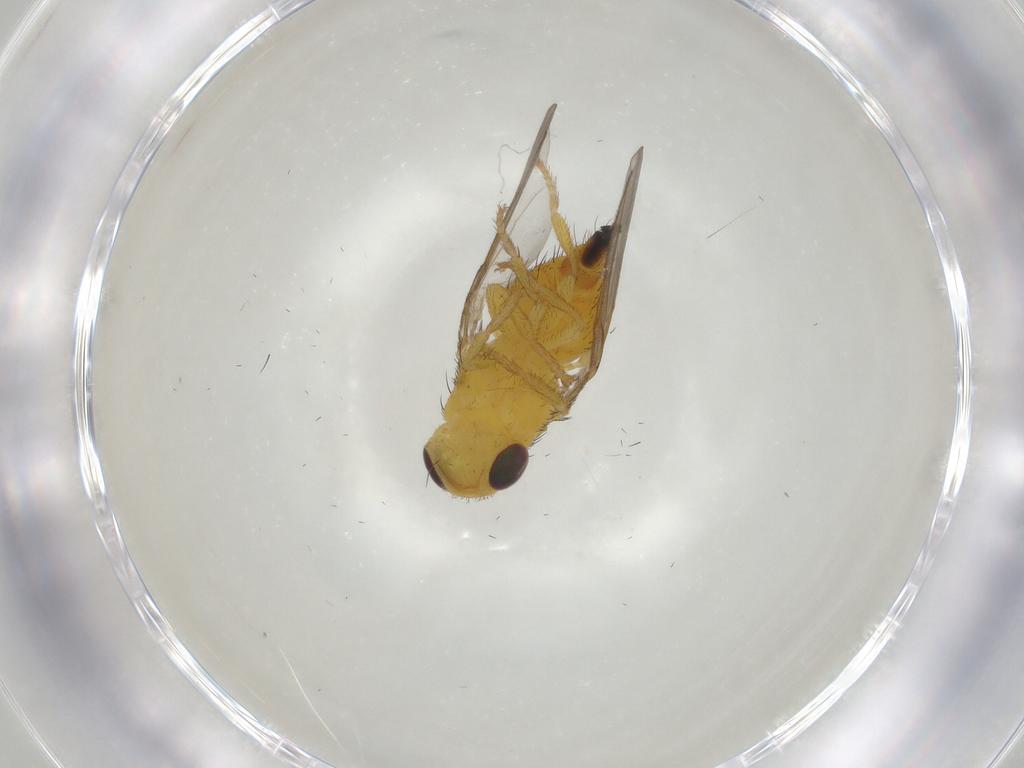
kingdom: Animalia
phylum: Arthropoda
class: Insecta
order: Diptera
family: Fergusoninidae
